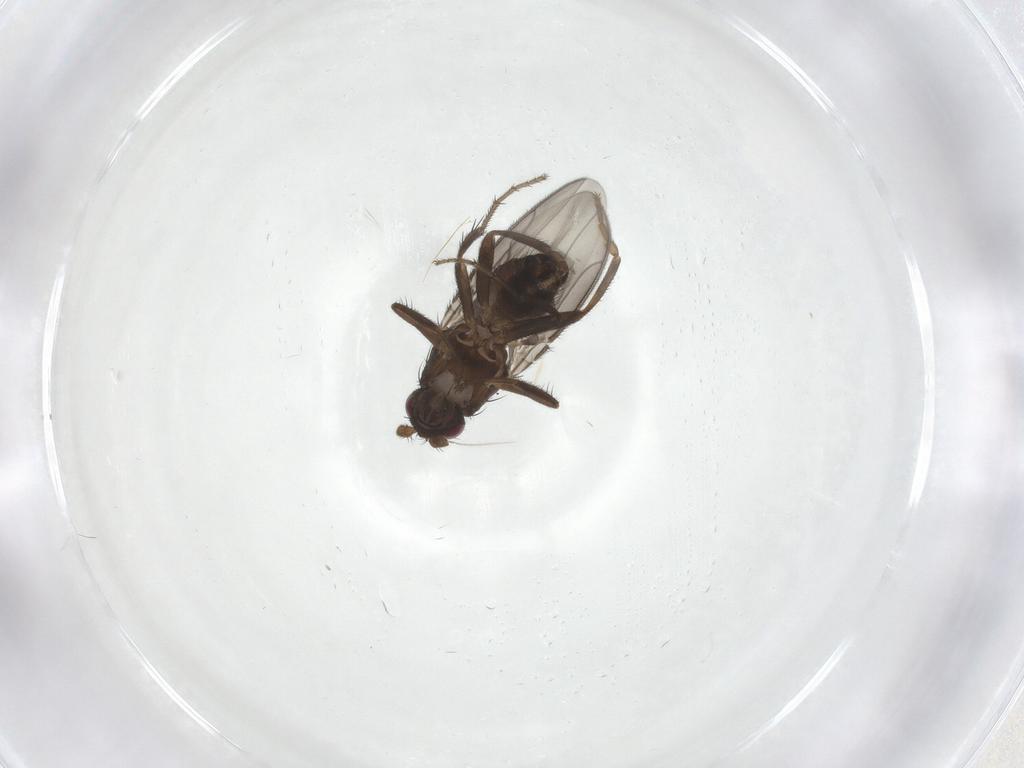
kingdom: Animalia
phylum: Arthropoda
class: Insecta
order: Diptera
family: Sphaeroceridae
